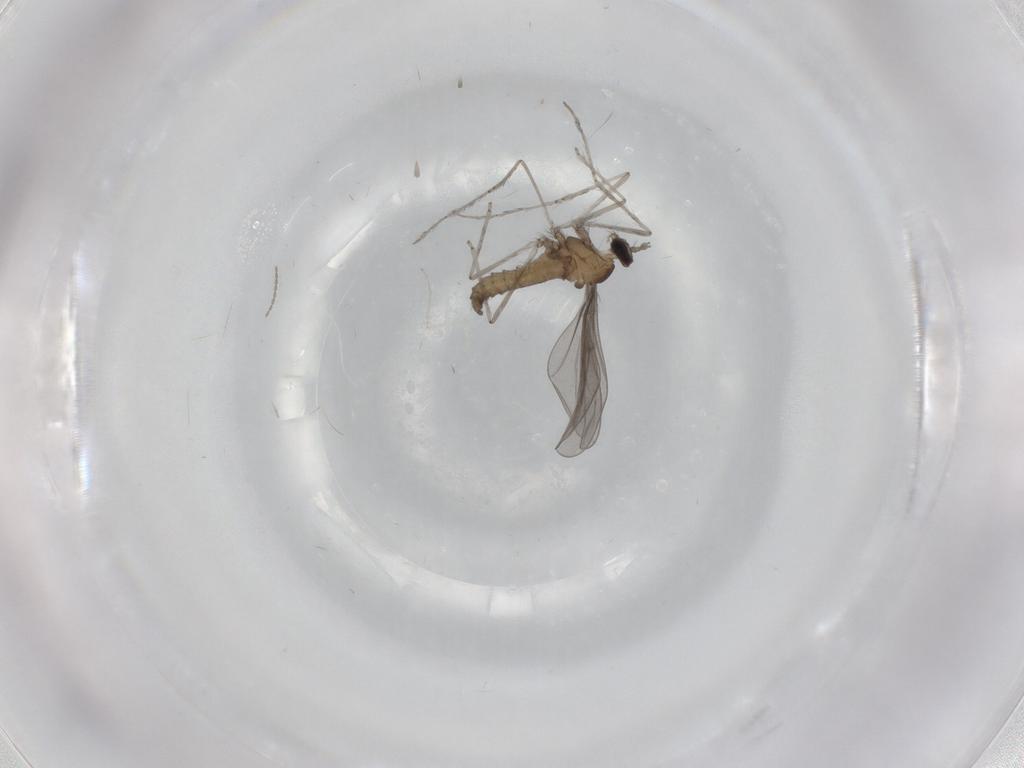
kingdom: Animalia
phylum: Arthropoda
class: Insecta
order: Diptera
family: Cecidomyiidae
